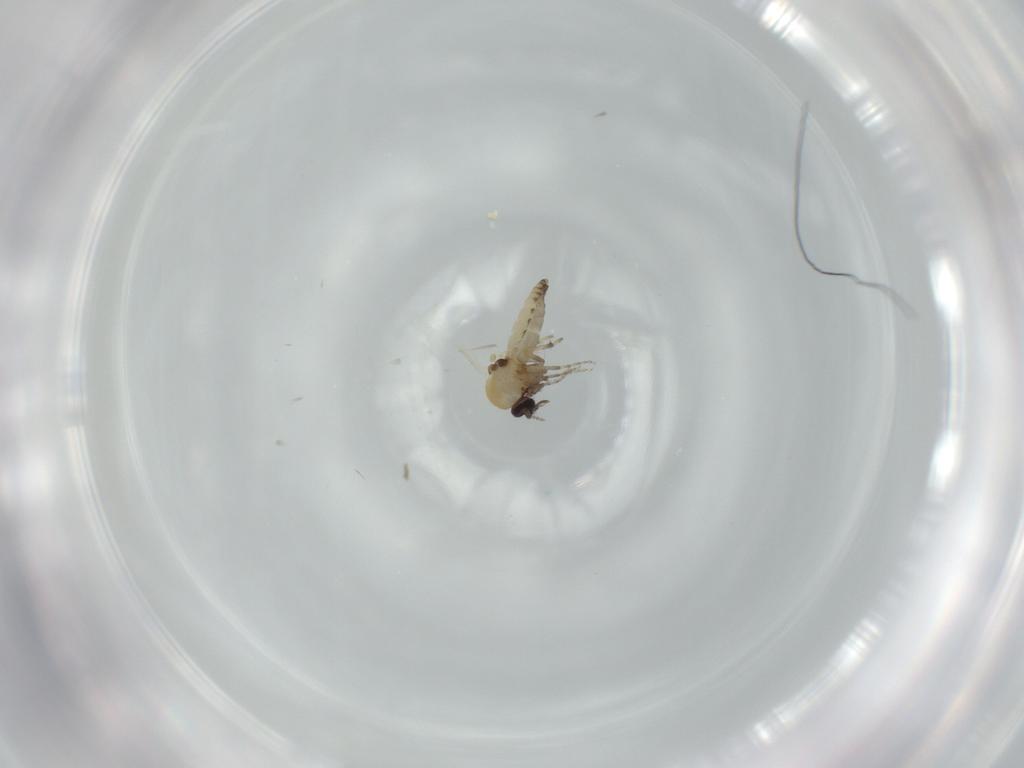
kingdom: Animalia
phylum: Arthropoda
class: Insecta
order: Diptera
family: Ceratopogonidae
